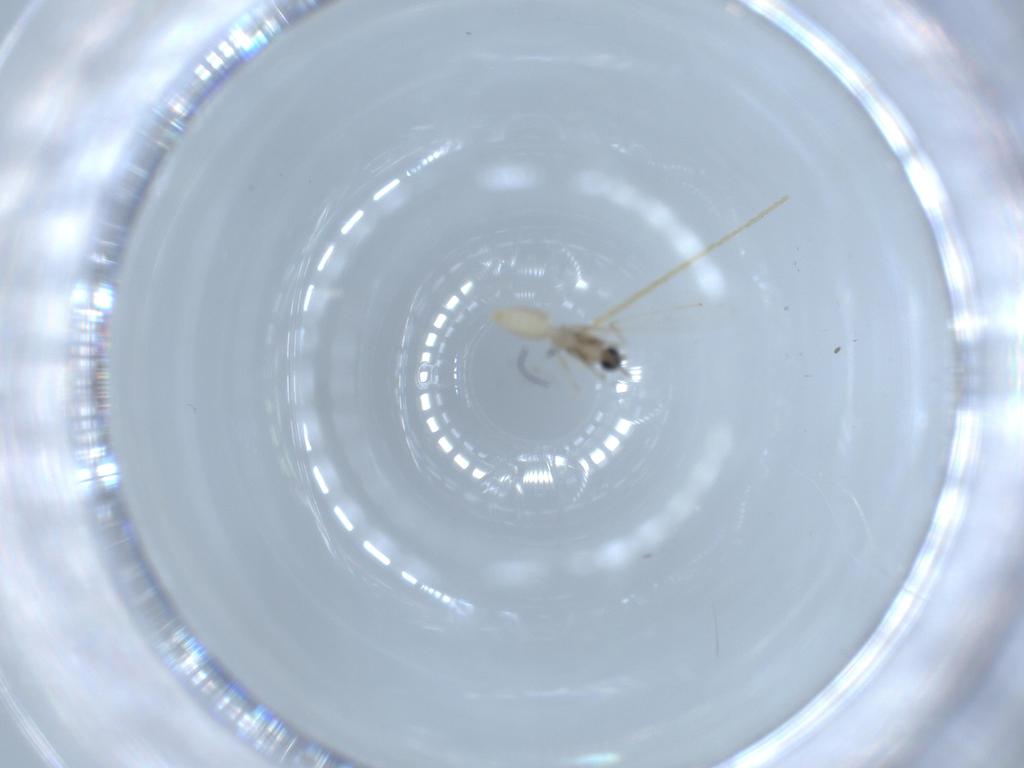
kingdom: Animalia
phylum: Arthropoda
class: Insecta
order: Diptera
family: Cecidomyiidae
